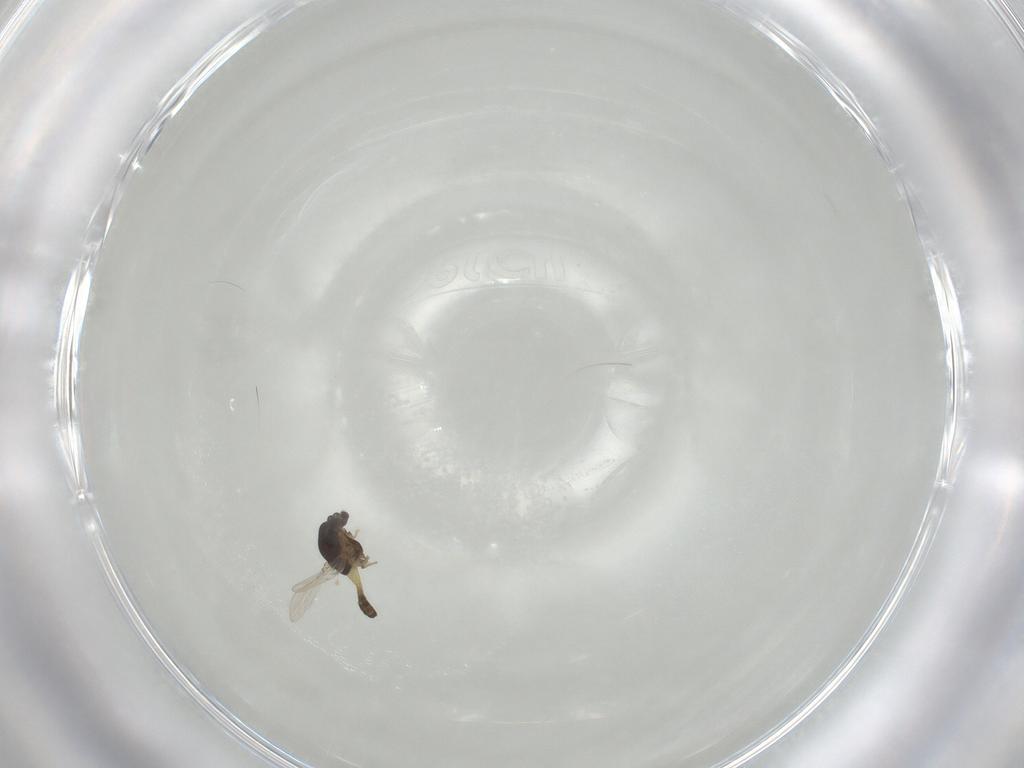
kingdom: Animalia
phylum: Arthropoda
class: Insecta
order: Diptera
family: Chironomidae
